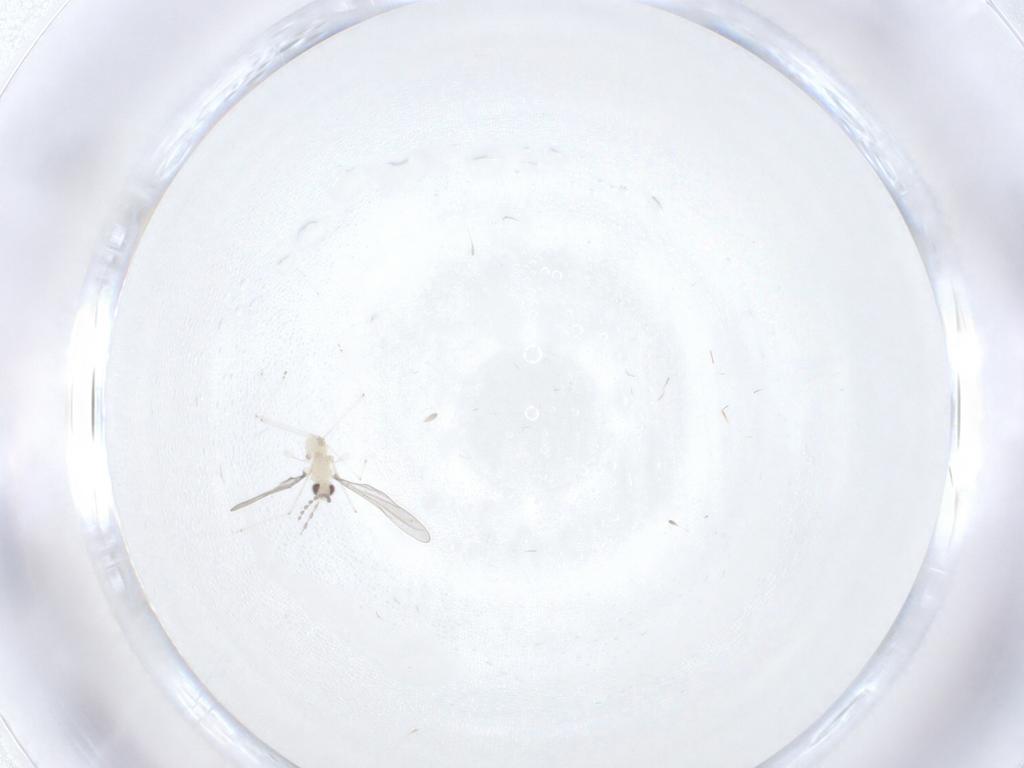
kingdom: Animalia
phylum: Arthropoda
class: Insecta
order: Diptera
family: Cecidomyiidae
